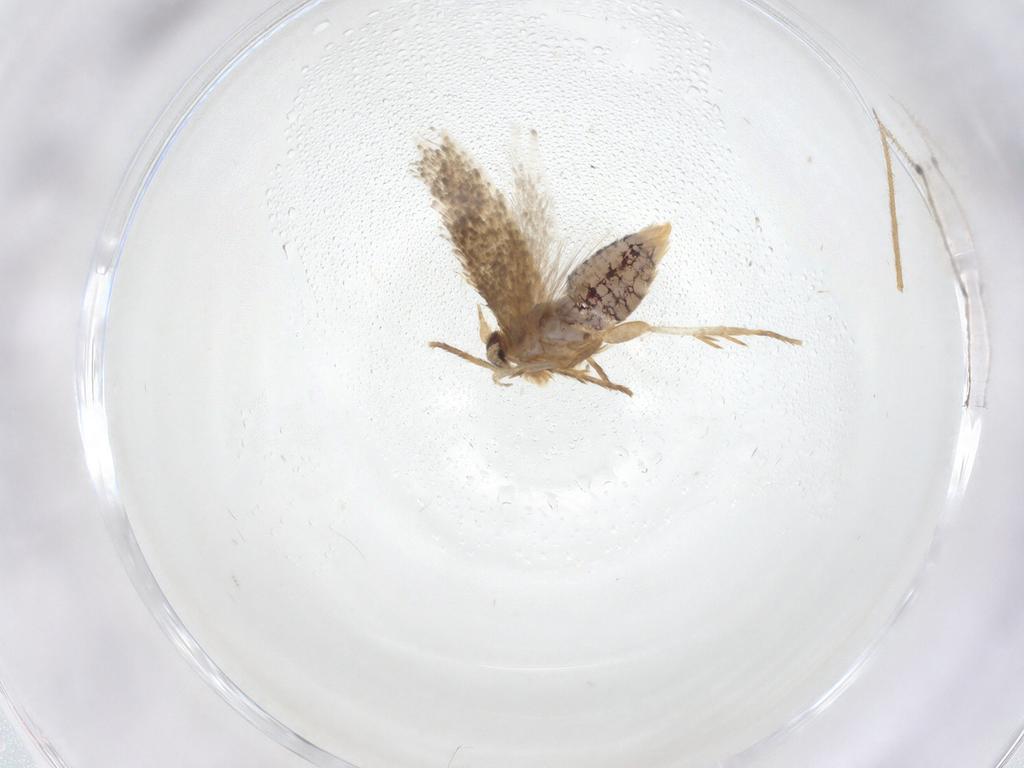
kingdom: Animalia
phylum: Arthropoda
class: Insecta
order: Lepidoptera
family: Nepticulidae
